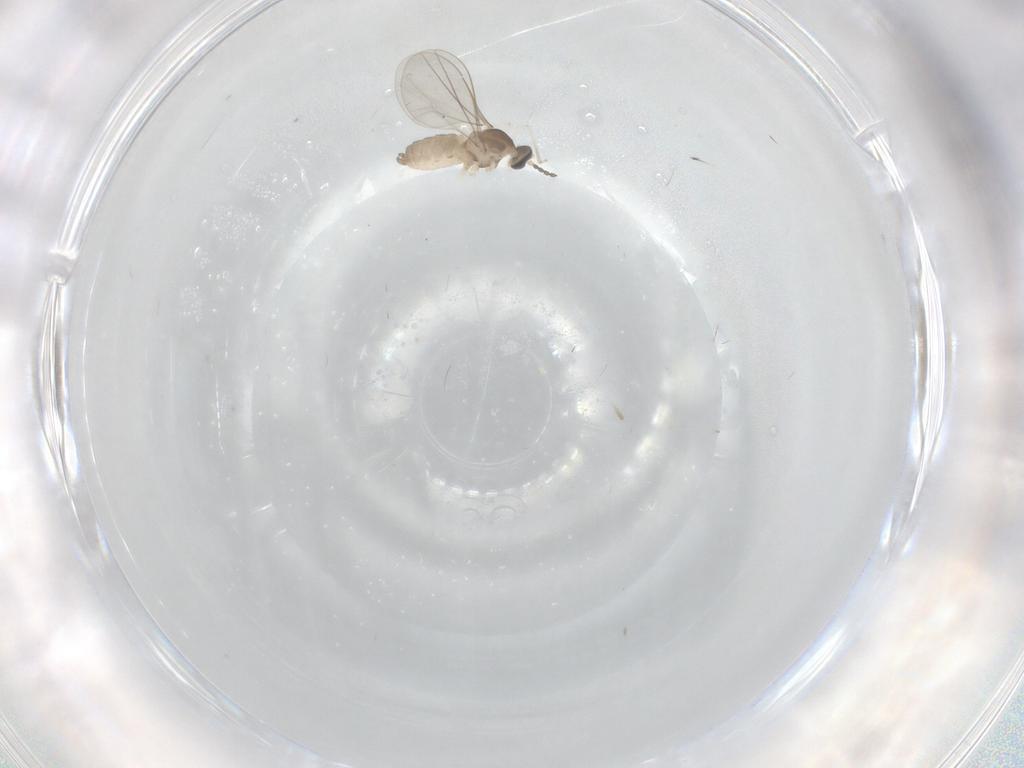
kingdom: Animalia
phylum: Arthropoda
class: Insecta
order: Diptera
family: Cecidomyiidae
